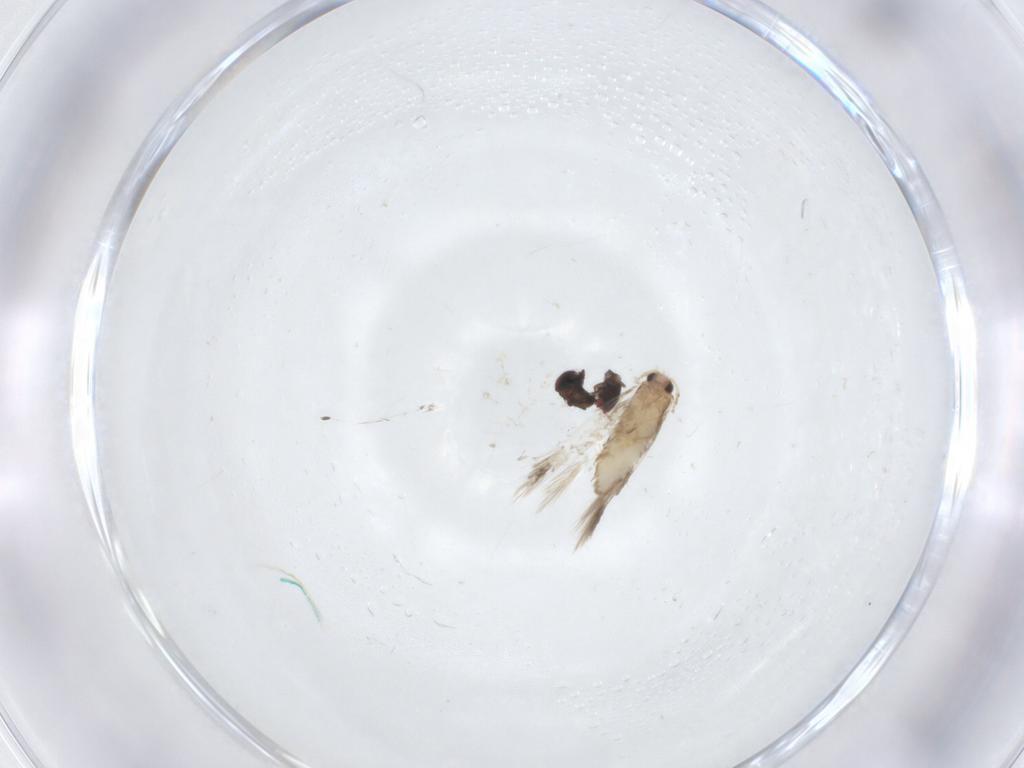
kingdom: Animalia
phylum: Arthropoda
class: Insecta
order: Lepidoptera
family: Nepticulidae
